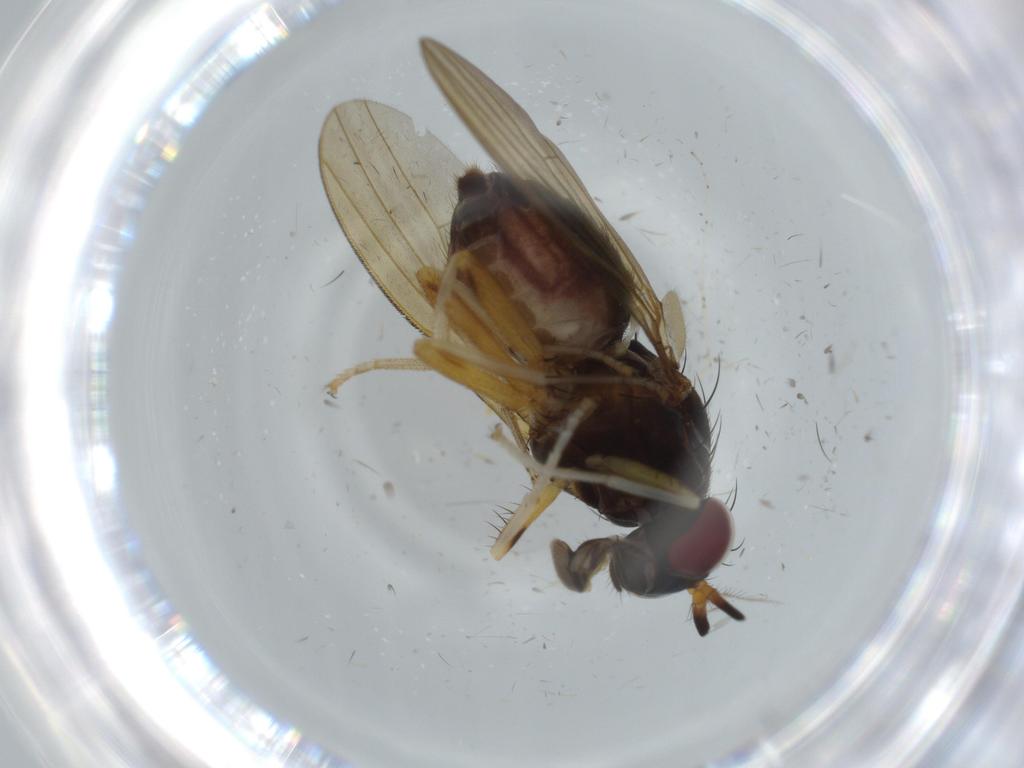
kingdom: Animalia
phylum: Arthropoda
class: Insecta
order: Diptera
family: Lauxaniidae
